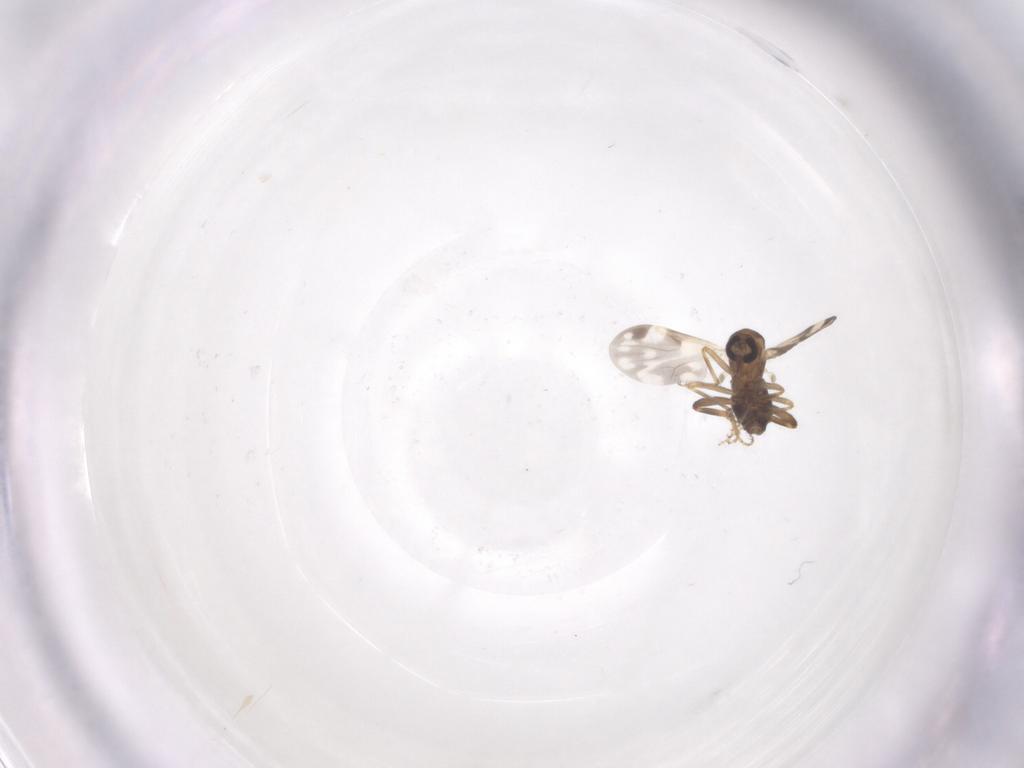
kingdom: Animalia
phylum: Arthropoda
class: Insecta
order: Diptera
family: Ceratopogonidae
